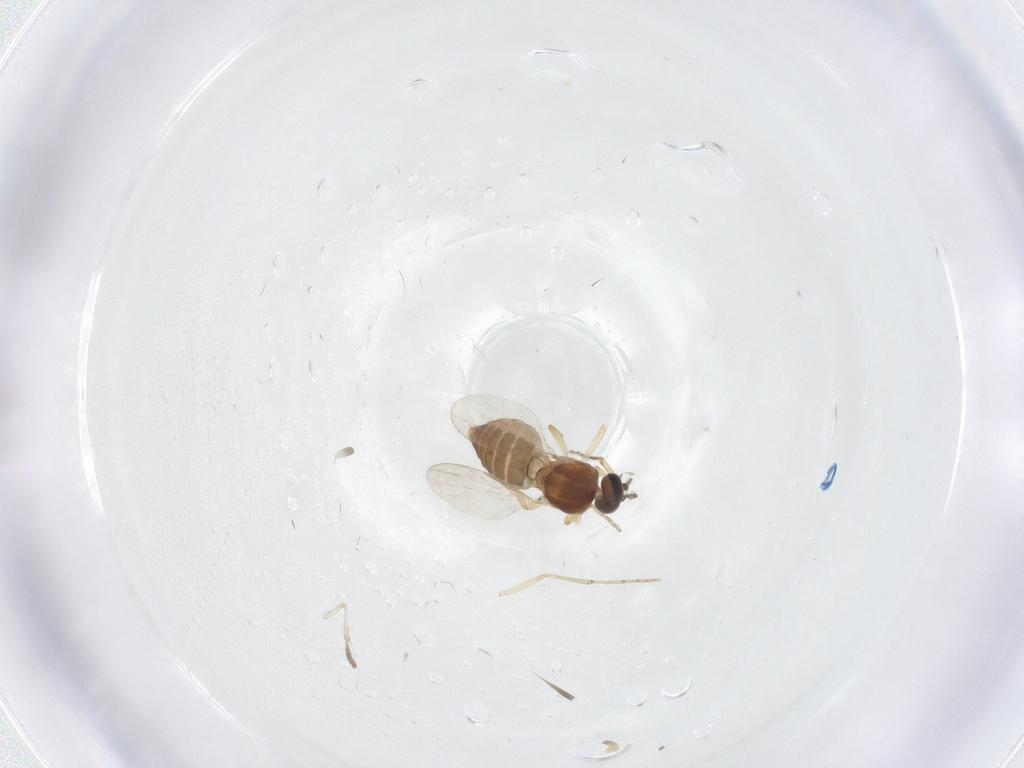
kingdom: Animalia
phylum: Arthropoda
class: Insecta
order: Diptera
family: Ceratopogonidae
